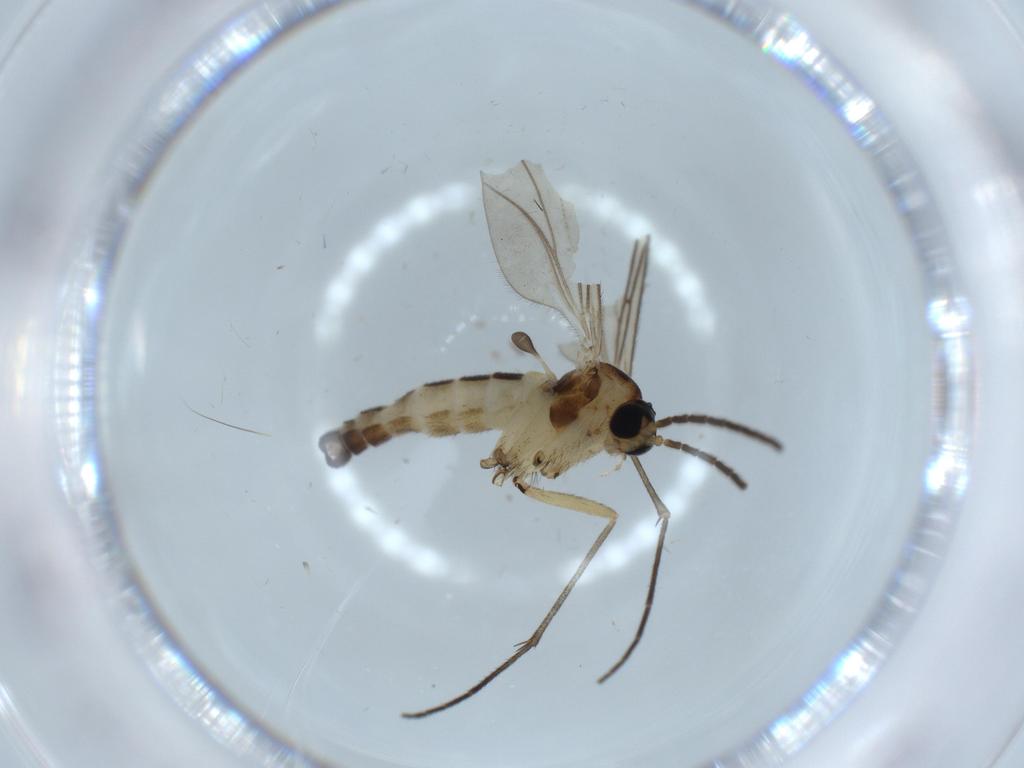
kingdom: Animalia
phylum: Arthropoda
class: Insecta
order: Diptera
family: Sciaridae
